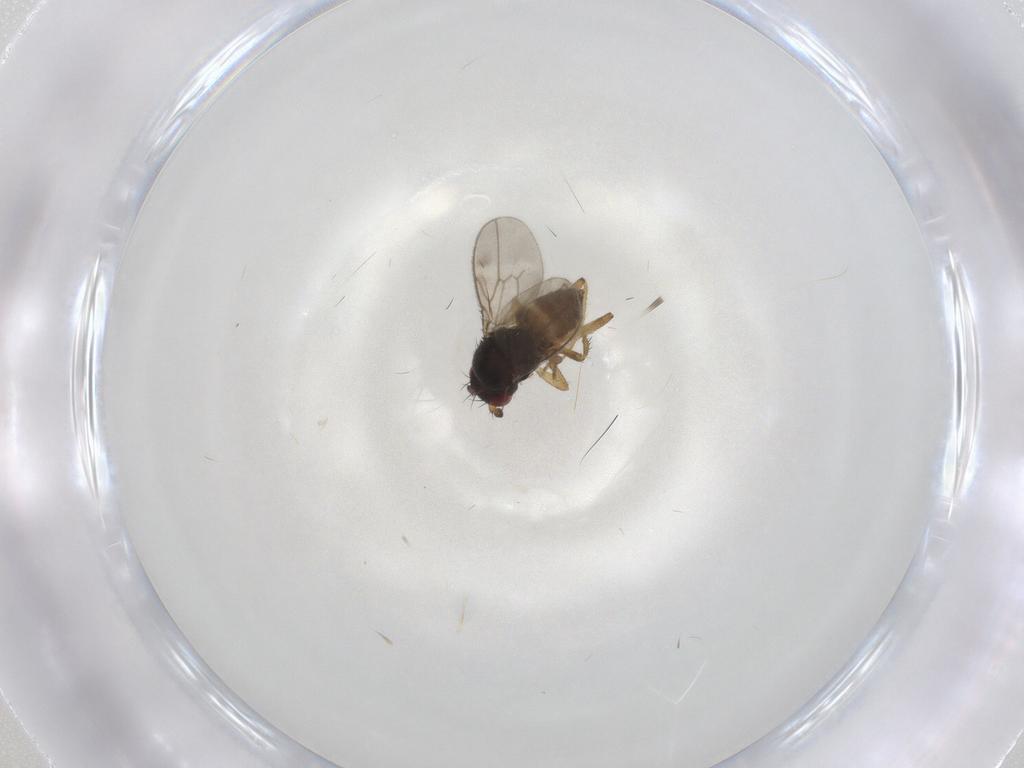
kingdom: Animalia
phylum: Arthropoda
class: Insecta
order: Diptera
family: Sphaeroceridae
